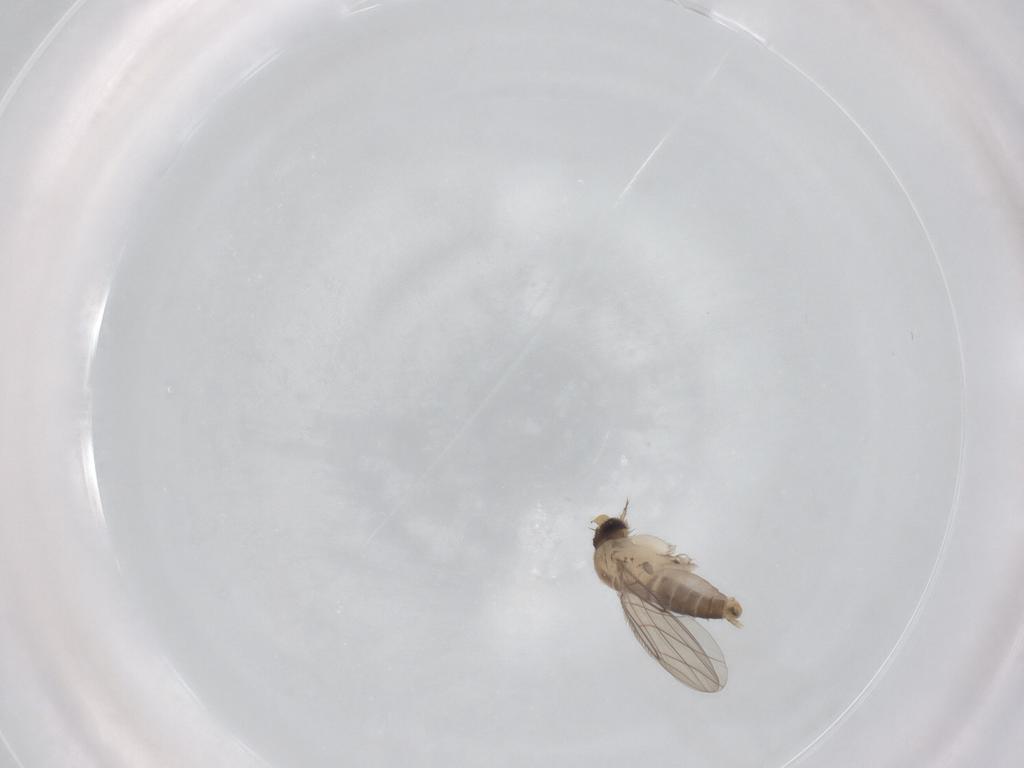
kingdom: Animalia
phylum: Arthropoda
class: Insecta
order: Diptera
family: Phoridae
